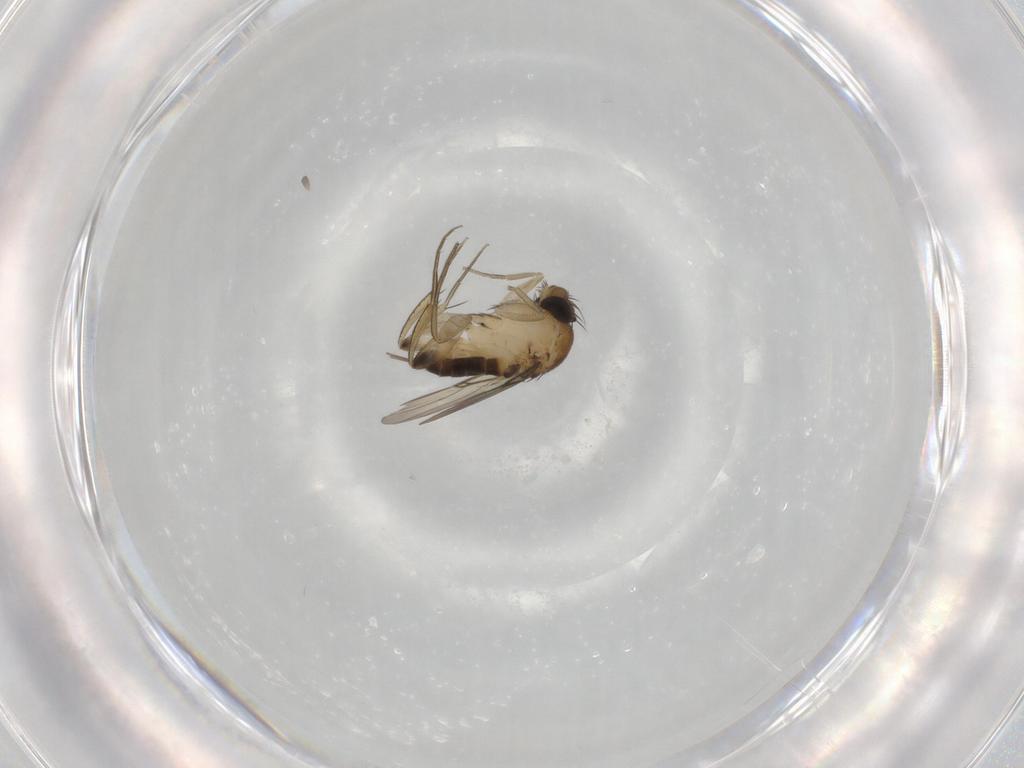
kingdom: Animalia
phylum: Arthropoda
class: Insecta
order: Diptera
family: Phoridae
